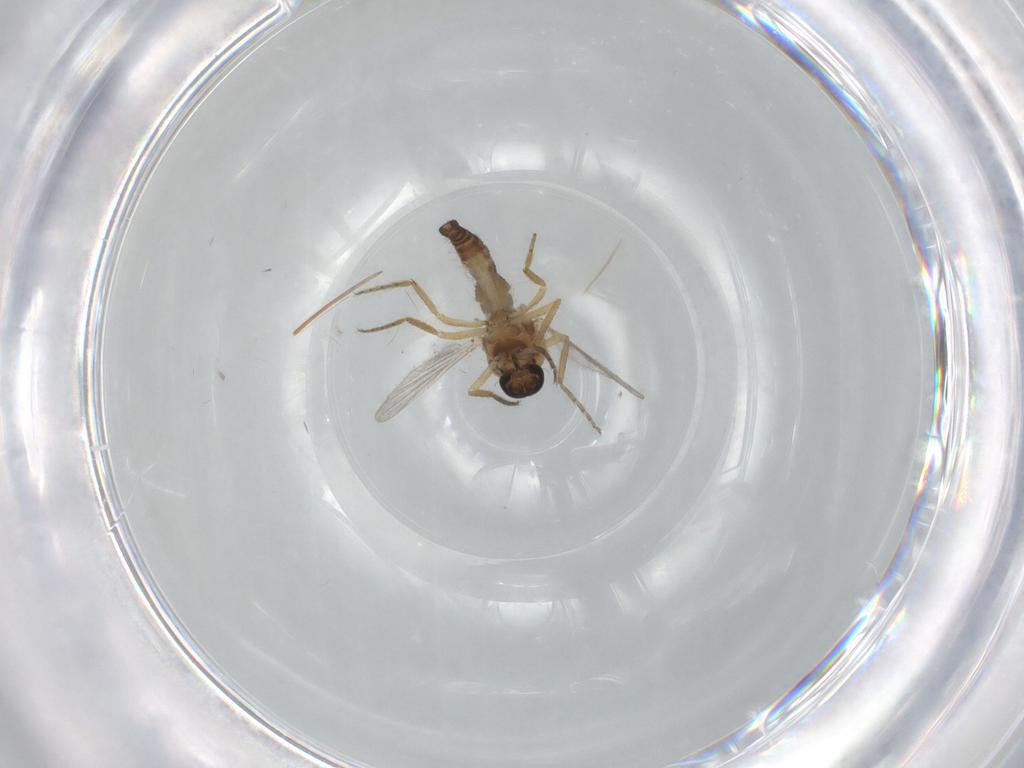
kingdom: Animalia
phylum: Arthropoda
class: Insecta
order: Diptera
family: Ceratopogonidae
